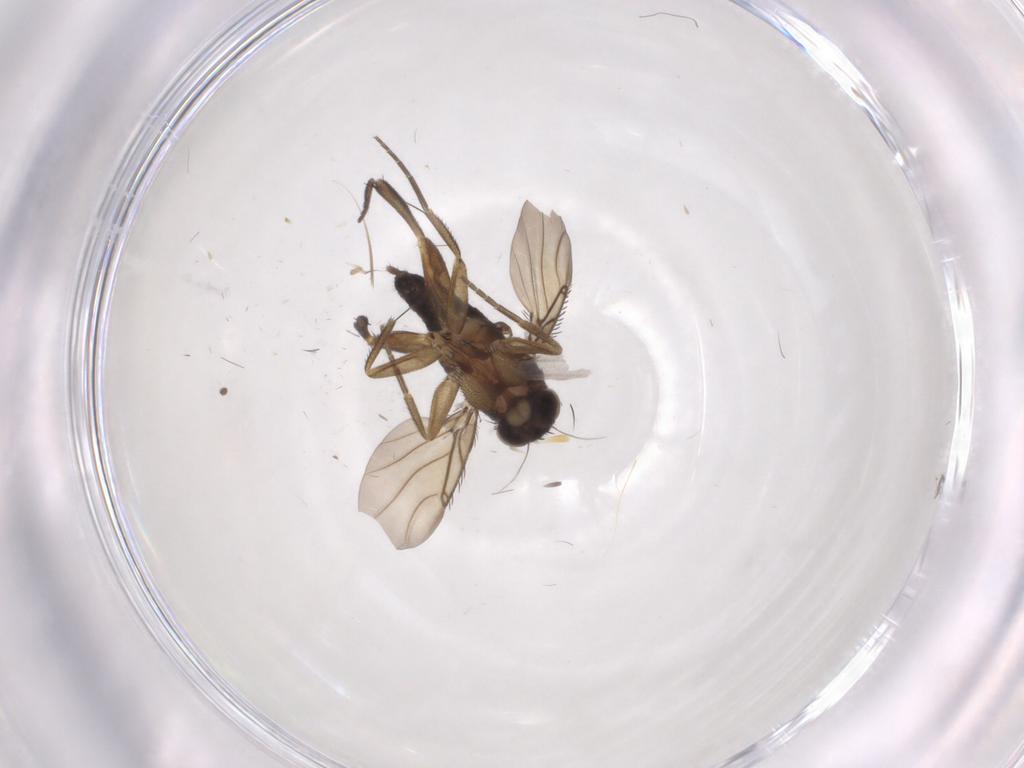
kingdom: Animalia
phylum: Arthropoda
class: Insecta
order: Diptera
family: Phoridae
